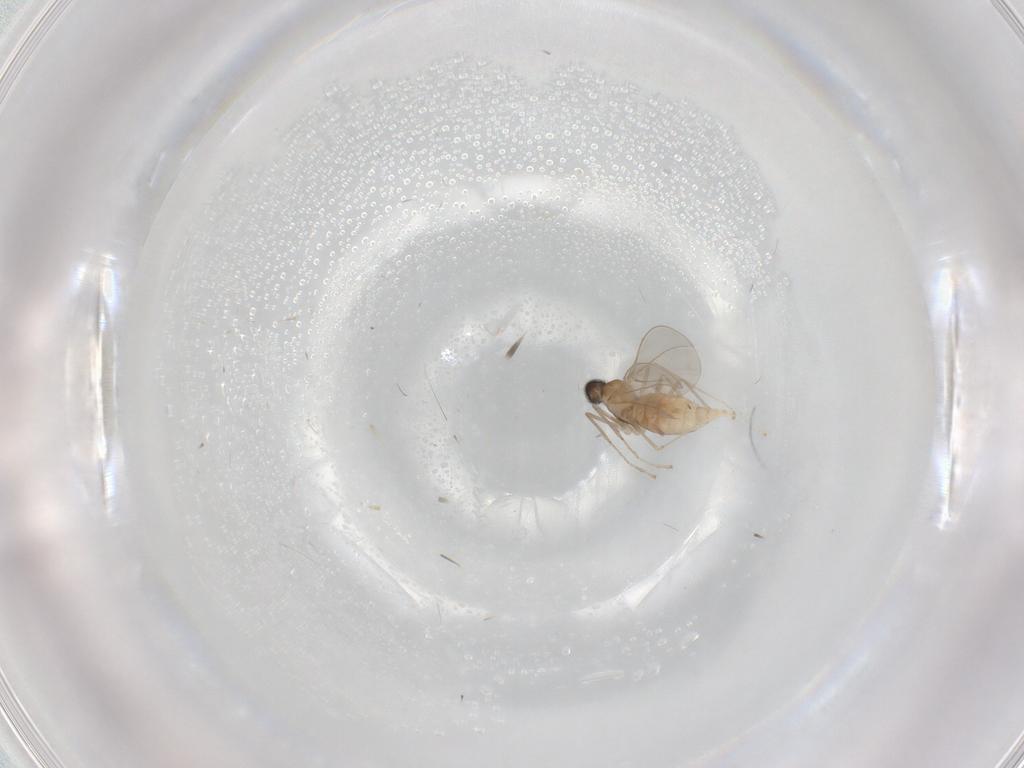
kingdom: Animalia
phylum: Arthropoda
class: Insecta
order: Diptera
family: Cecidomyiidae
